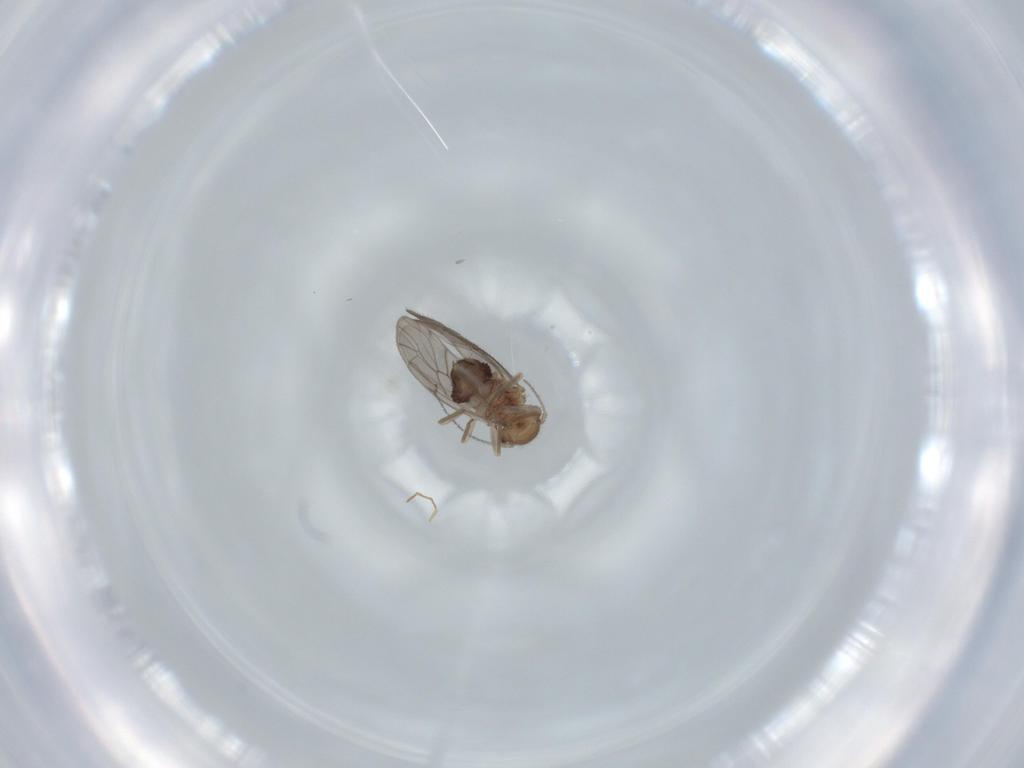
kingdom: Animalia
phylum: Arthropoda
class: Insecta
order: Psocodea
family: Ectopsocidae
